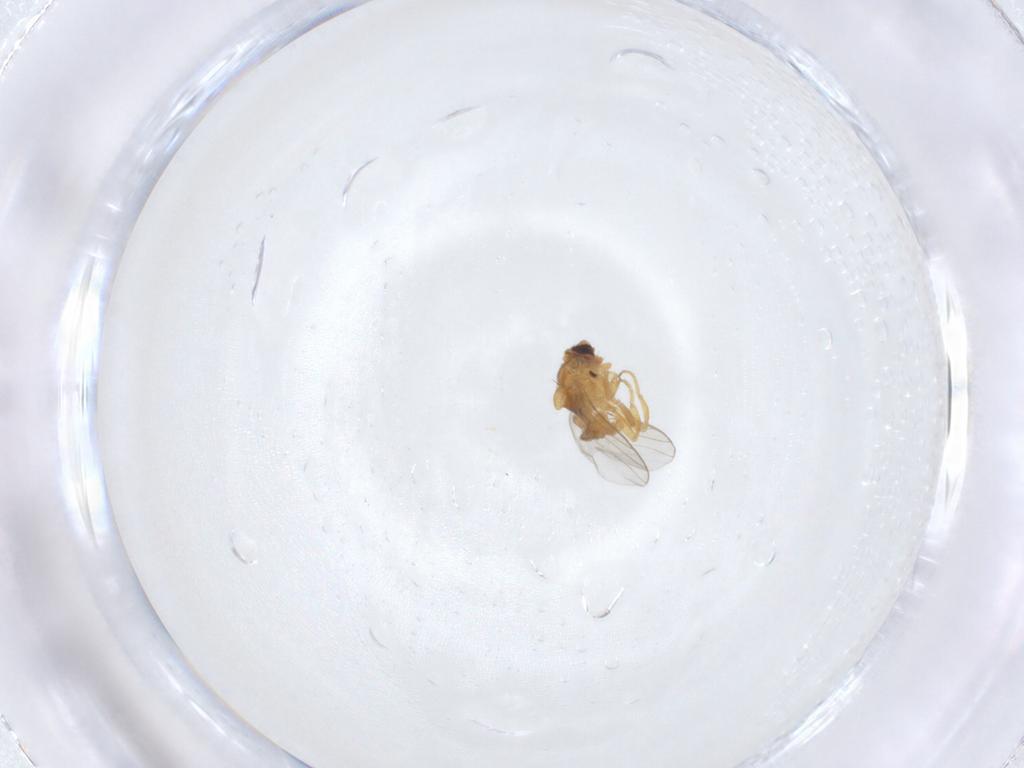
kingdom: Animalia
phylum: Arthropoda
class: Insecta
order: Diptera
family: Chloropidae
